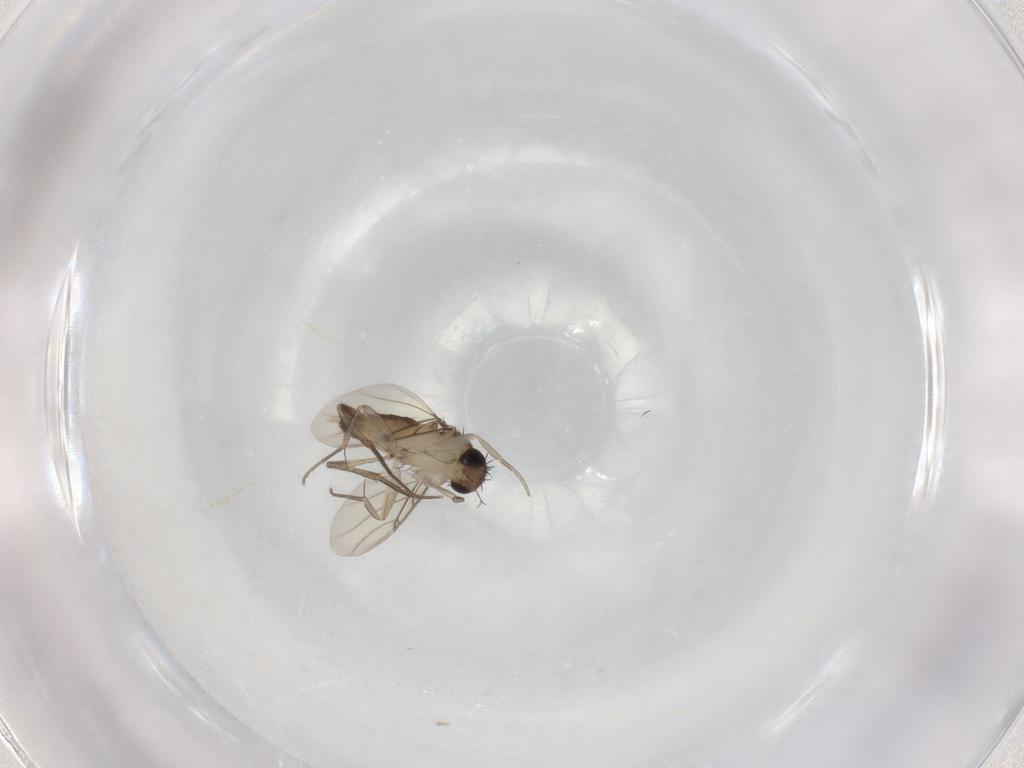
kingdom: Animalia
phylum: Arthropoda
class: Insecta
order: Diptera
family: Phoridae
